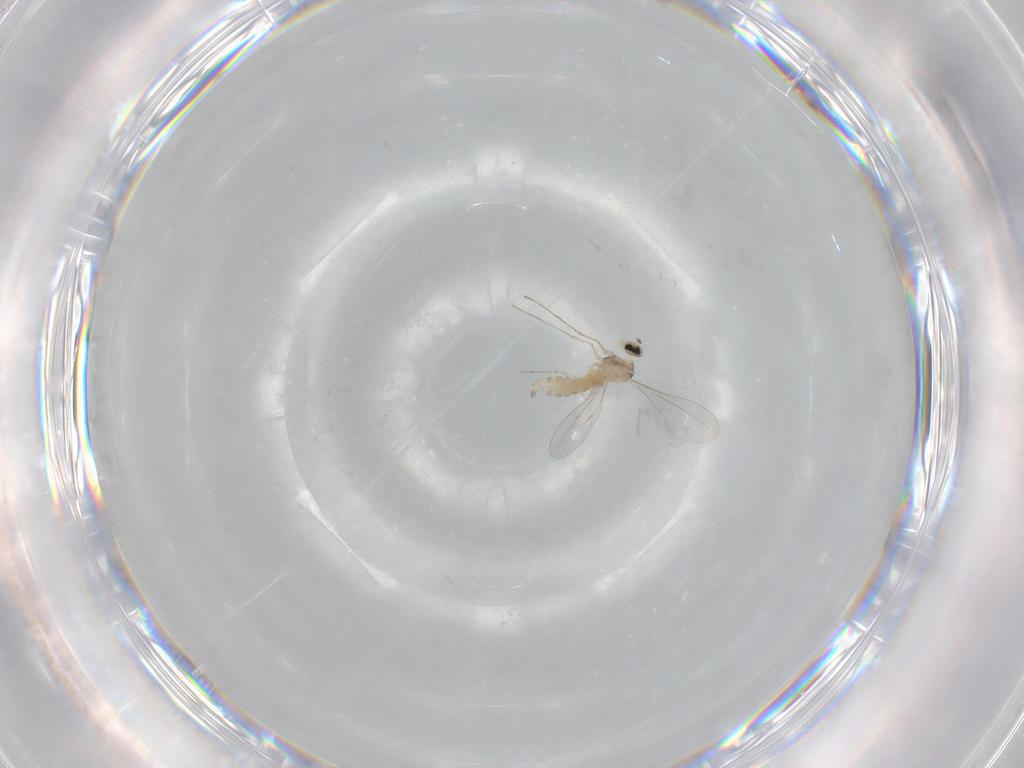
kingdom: Animalia
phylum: Arthropoda
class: Insecta
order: Diptera
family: Cecidomyiidae
